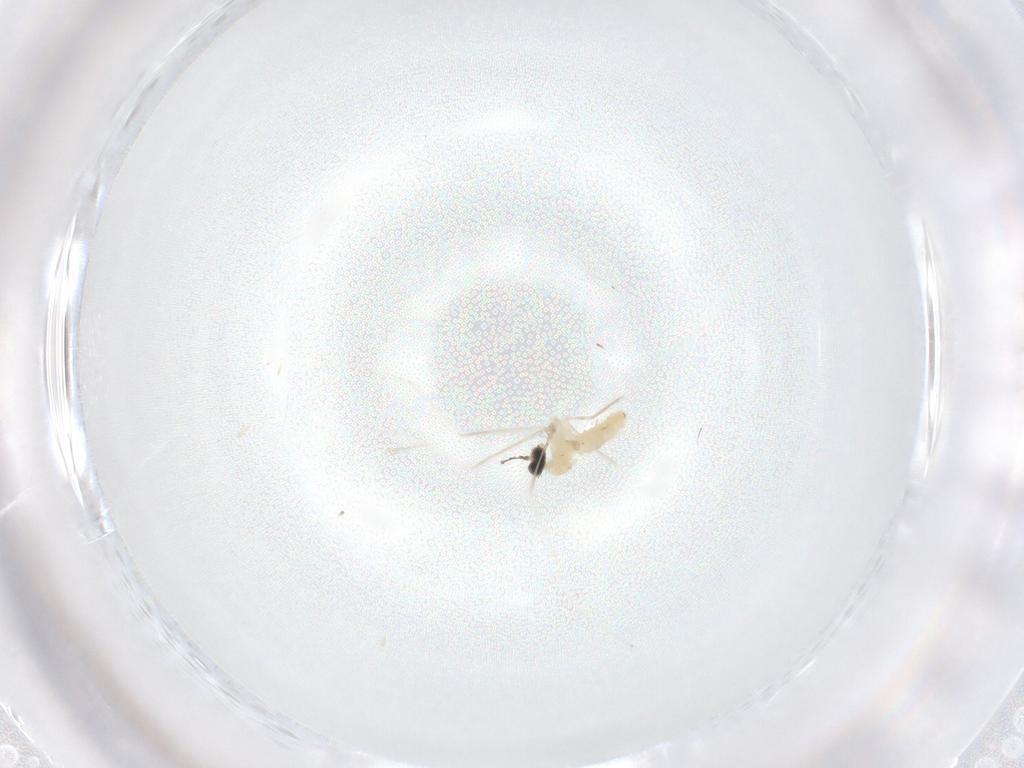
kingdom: Animalia
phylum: Arthropoda
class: Insecta
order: Diptera
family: Cecidomyiidae
